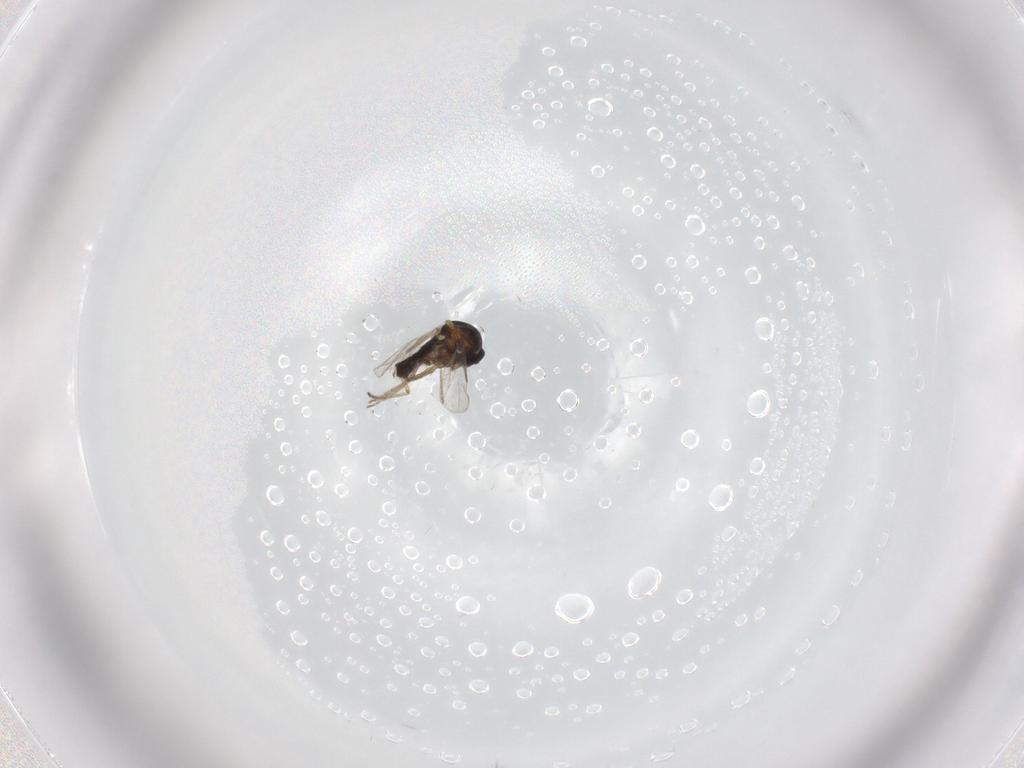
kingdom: Animalia
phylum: Arthropoda
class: Insecta
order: Diptera
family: Ceratopogonidae
